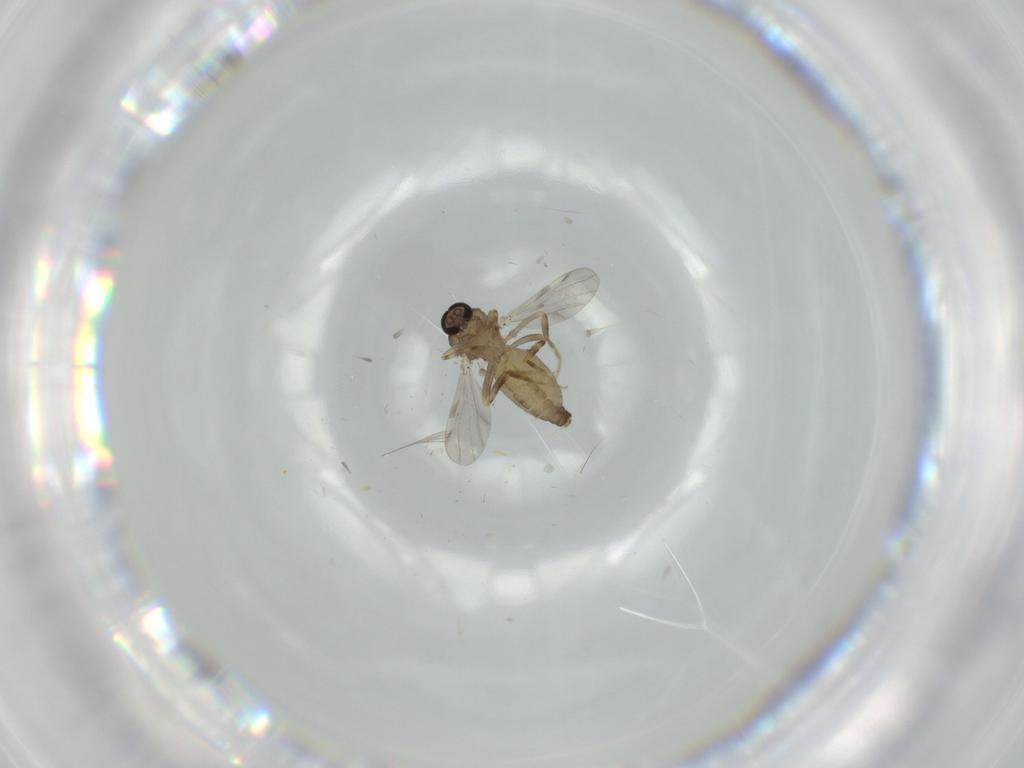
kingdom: Animalia
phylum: Arthropoda
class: Insecta
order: Diptera
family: Ceratopogonidae
